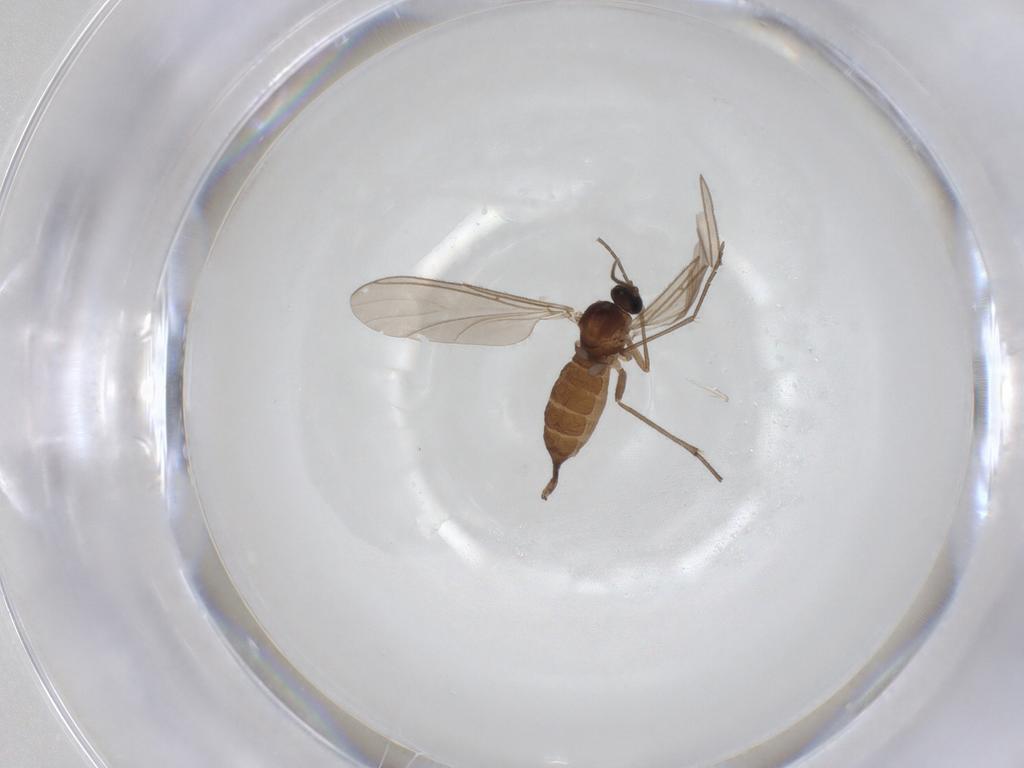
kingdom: Animalia
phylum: Arthropoda
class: Insecta
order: Diptera
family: Sciaridae
